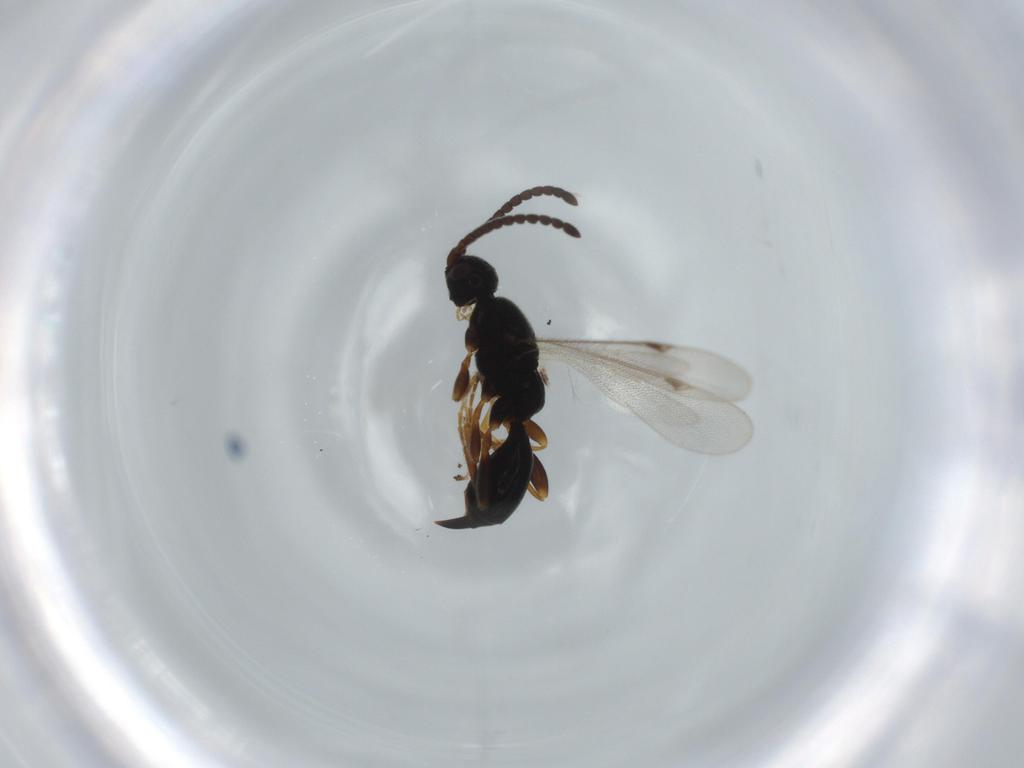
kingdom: Animalia
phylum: Arthropoda
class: Insecta
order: Hymenoptera
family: Proctotrupidae
